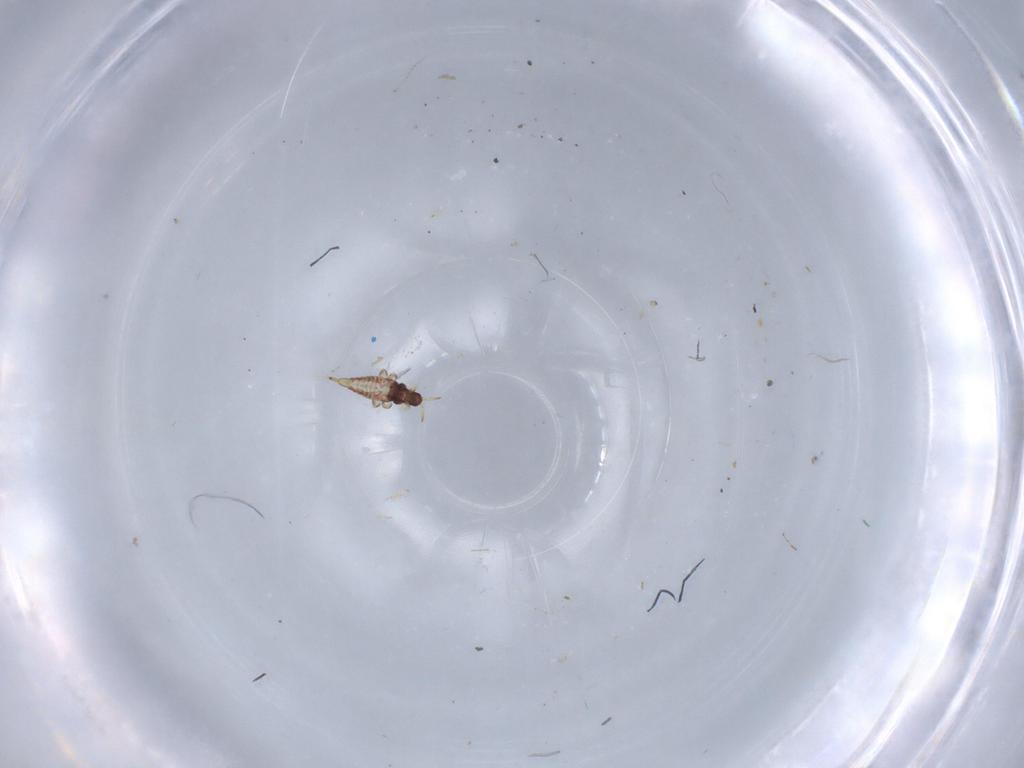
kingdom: Animalia
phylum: Arthropoda
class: Insecta
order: Thysanoptera
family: Phlaeothripidae
